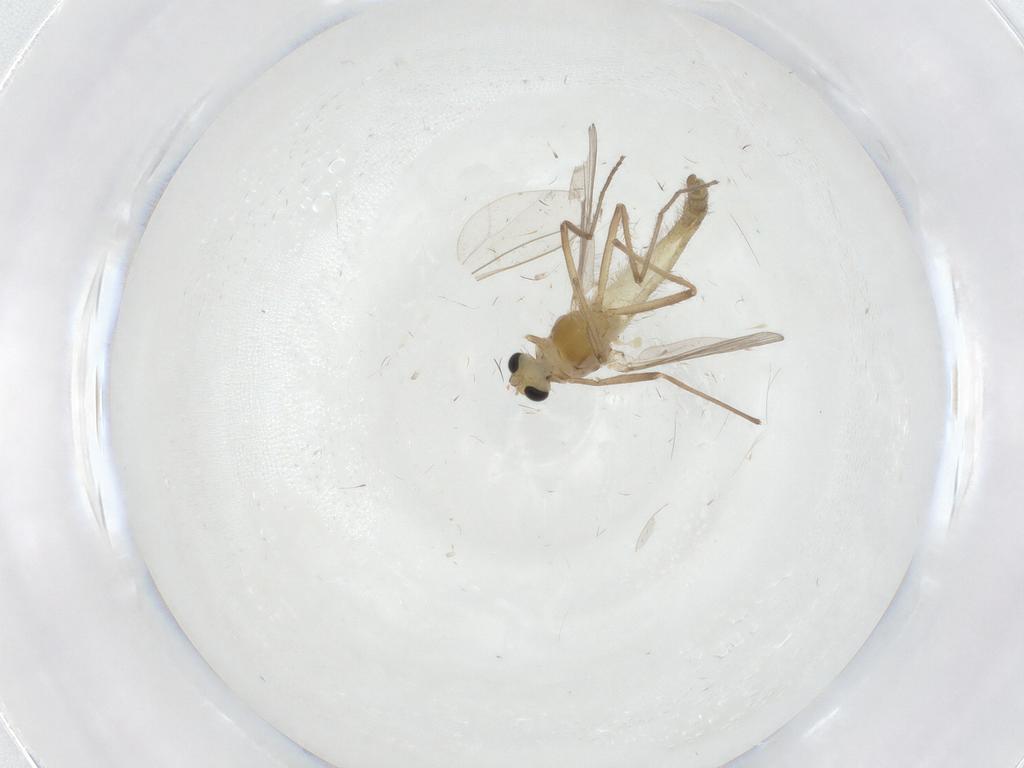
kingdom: Animalia
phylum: Arthropoda
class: Insecta
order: Diptera
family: Chironomidae
